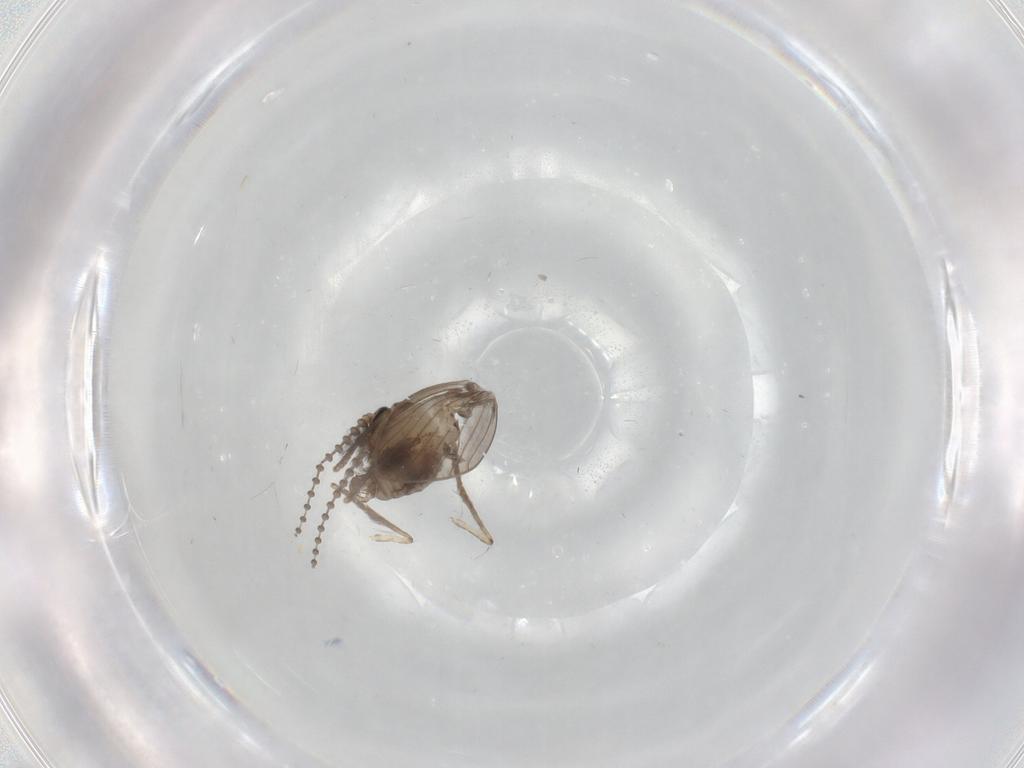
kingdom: Animalia
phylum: Arthropoda
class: Insecta
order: Diptera
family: Psychodidae
